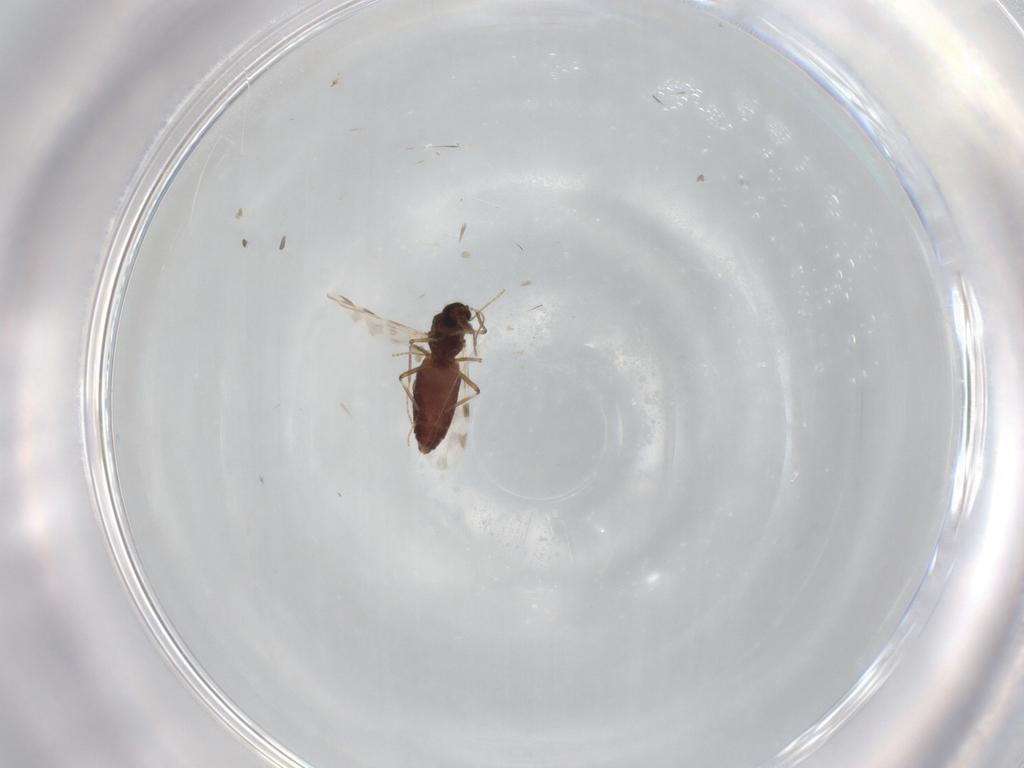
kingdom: Animalia
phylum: Arthropoda
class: Insecta
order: Diptera
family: Ceratopogonidae
